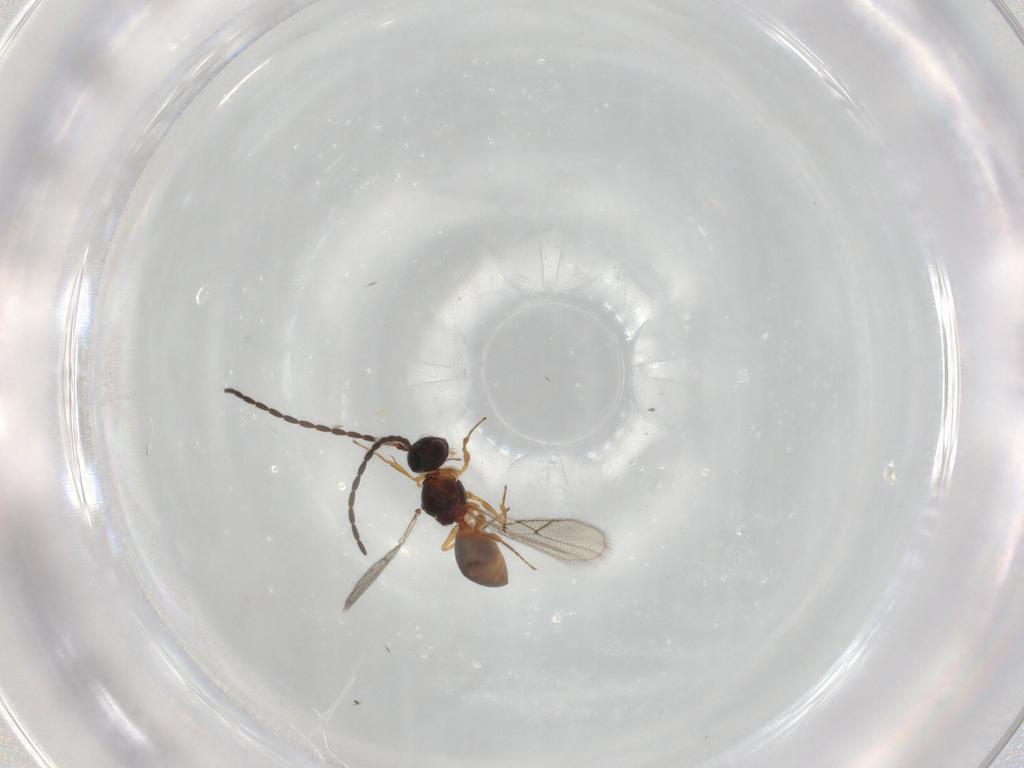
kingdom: Animalia
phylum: Arthropoda
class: Insecta
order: Hymenoptera
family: Figitidae
